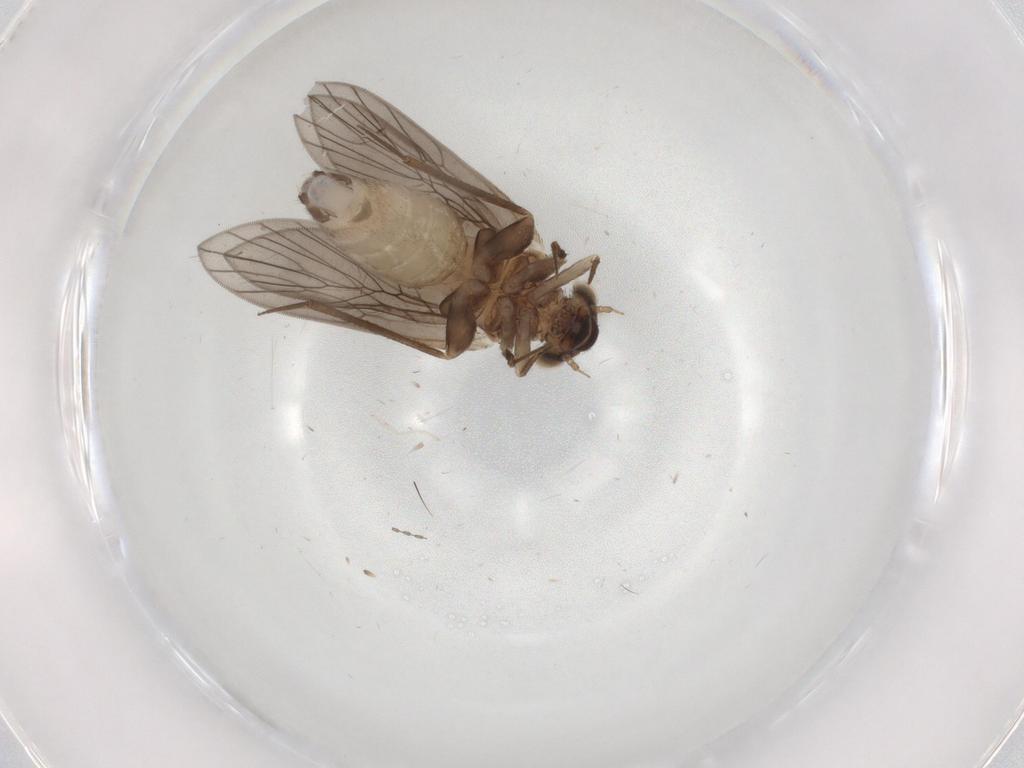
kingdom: Animalia
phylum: Arthropoda
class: Insecta
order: Psocodea
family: Lepidopsocidae
